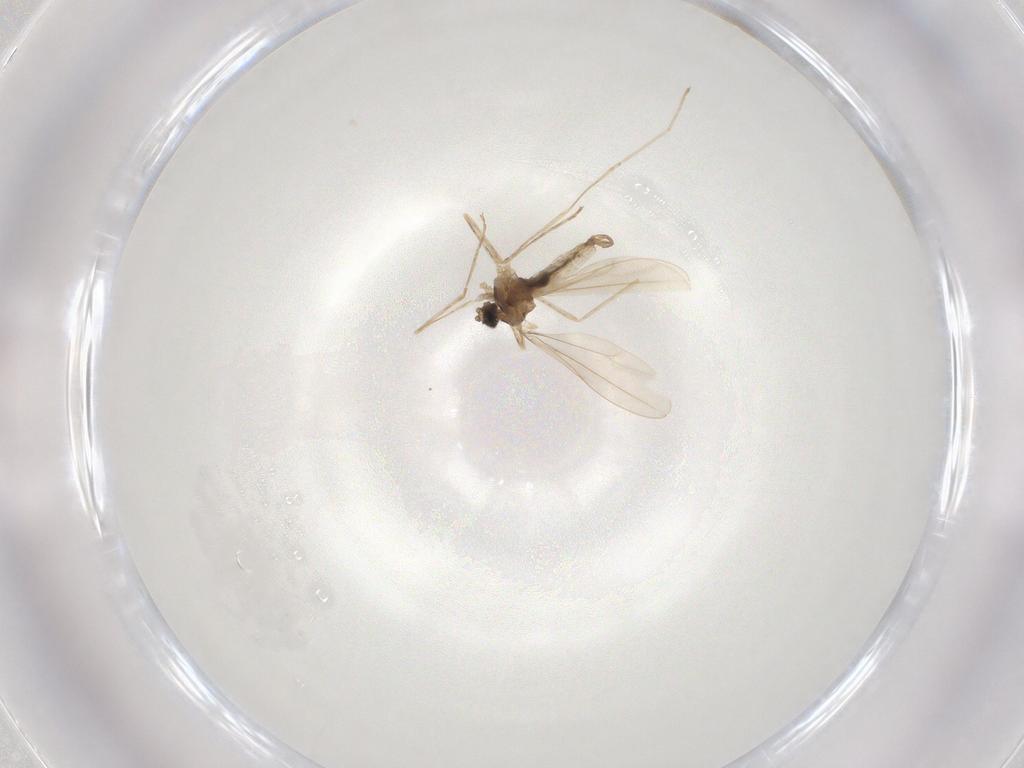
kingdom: Animalia
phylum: Arthropoda
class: Insecta
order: Diptera
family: Cecidomyiidae
